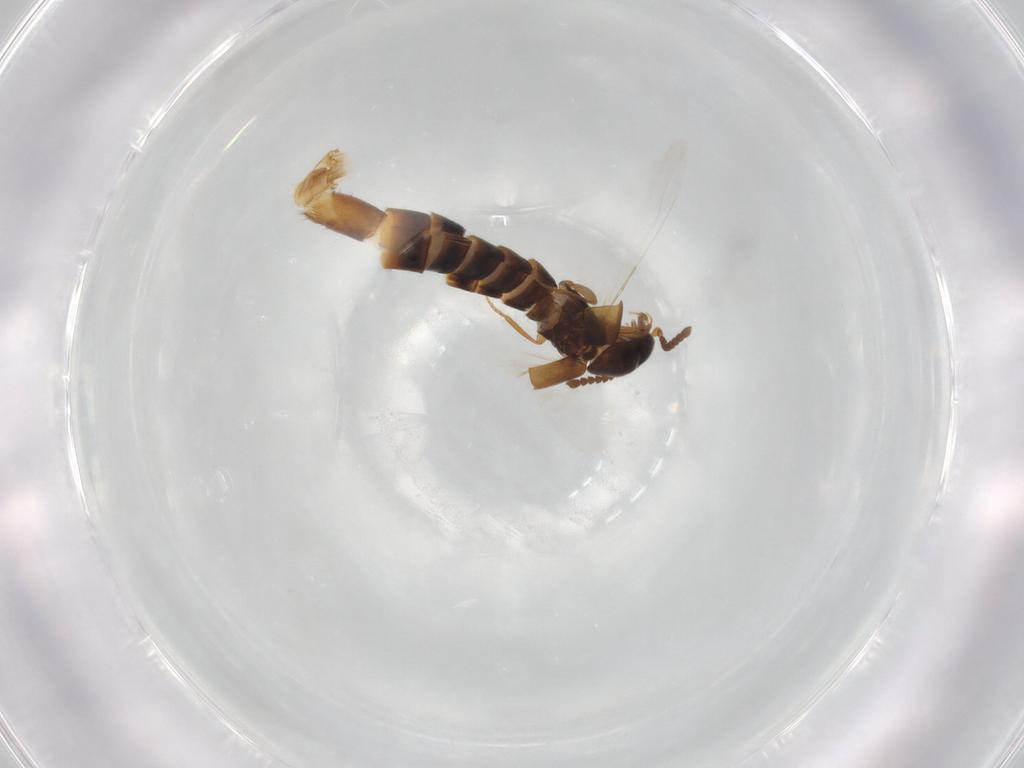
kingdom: Animalia
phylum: Arthropoda
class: Insecta
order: Coleoptera
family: Staphylinidae
